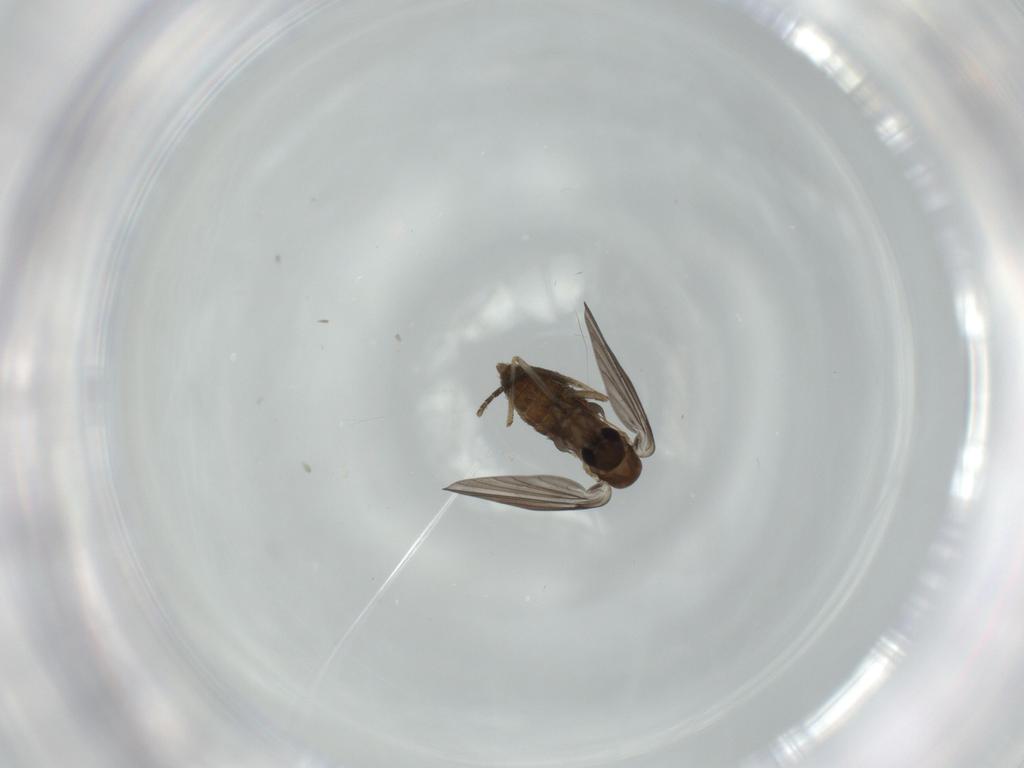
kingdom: Animalia
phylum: Arthropoda
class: Insecta
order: Diptera
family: Psychodidae
